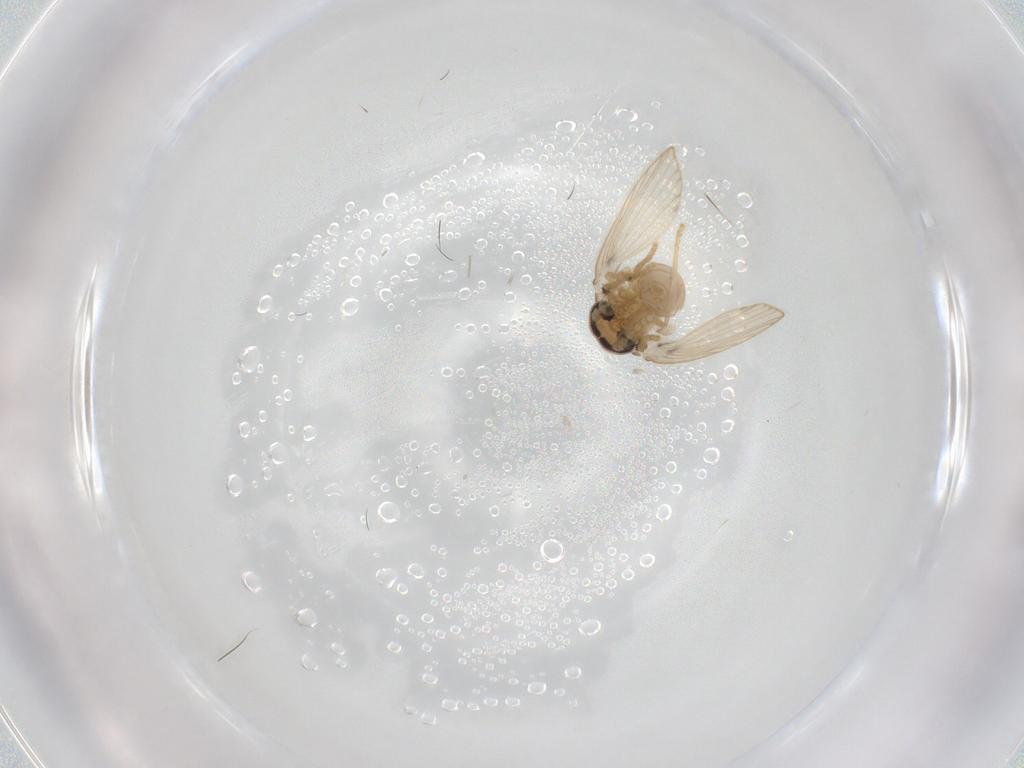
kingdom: Animalia
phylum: Arthropoda
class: Insecta
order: Diptera
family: Psychodidae
